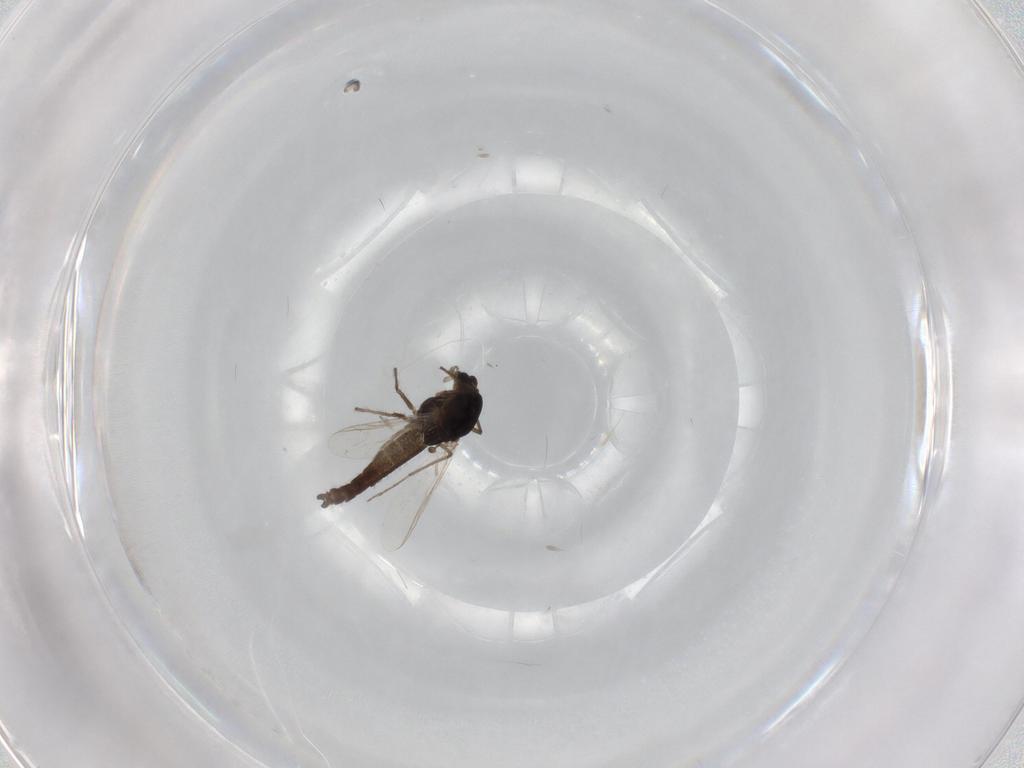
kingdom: Animalia
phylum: Arthropoda
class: Insecta
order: Diptera
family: Chironomidae
